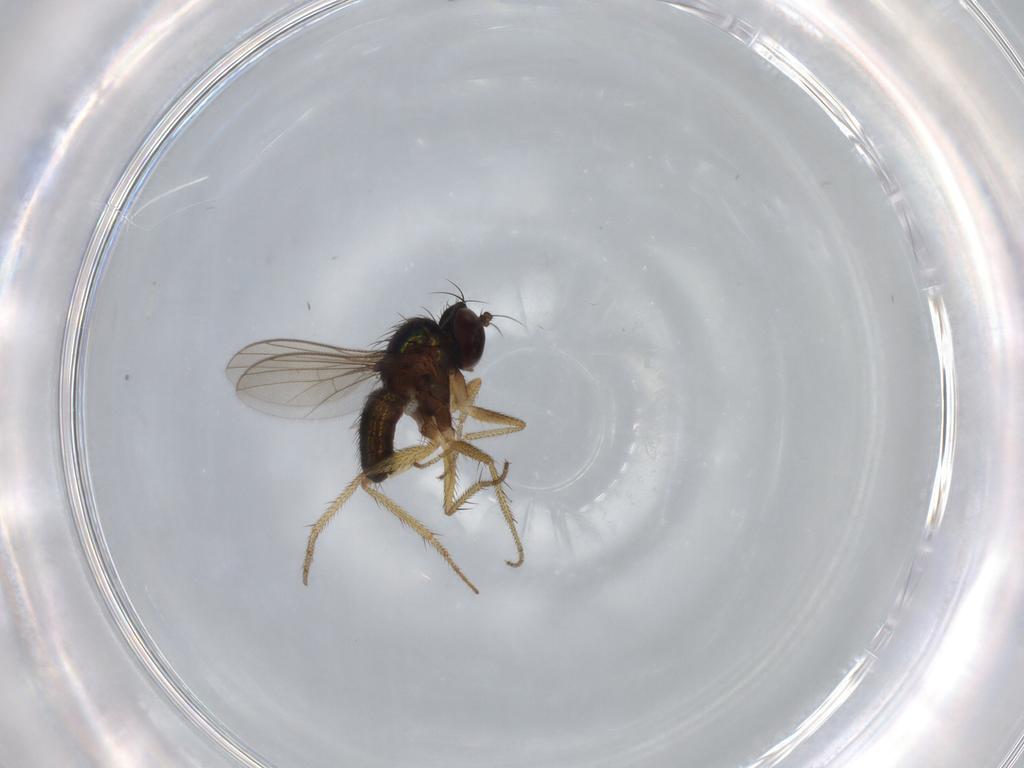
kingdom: Animalia
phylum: Arthropoda
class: Insecta
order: Diptera
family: Dolichopodidae
